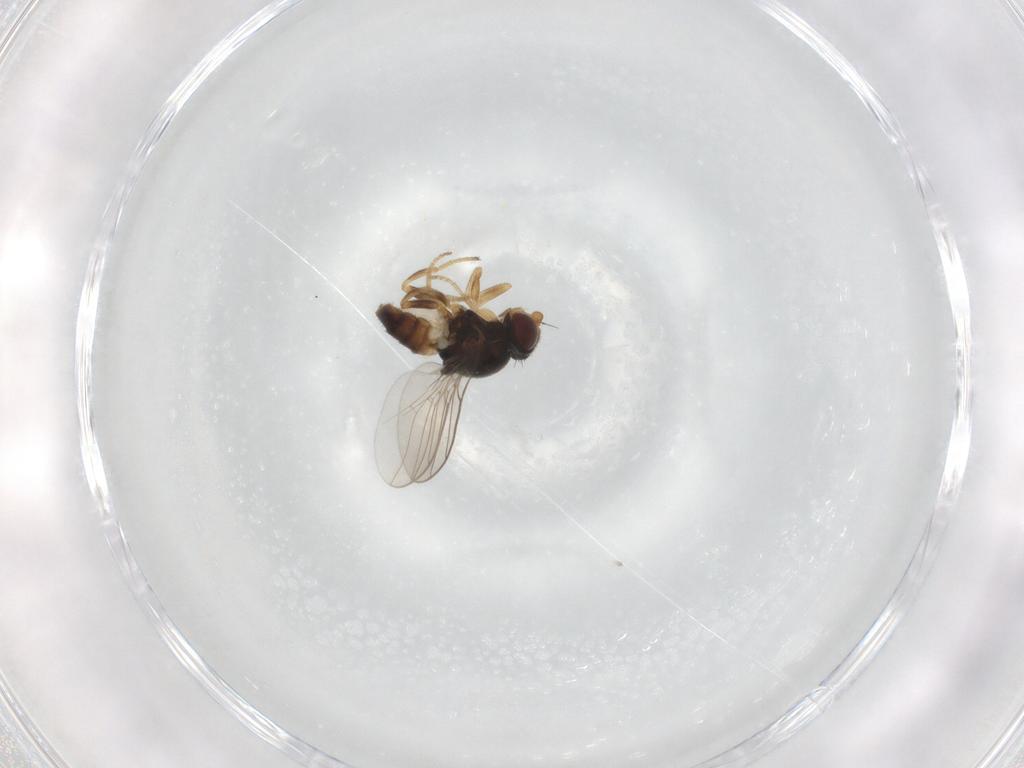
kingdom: Animalia
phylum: Arthropoda
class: Insecta
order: Diptera
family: Chloropidae
